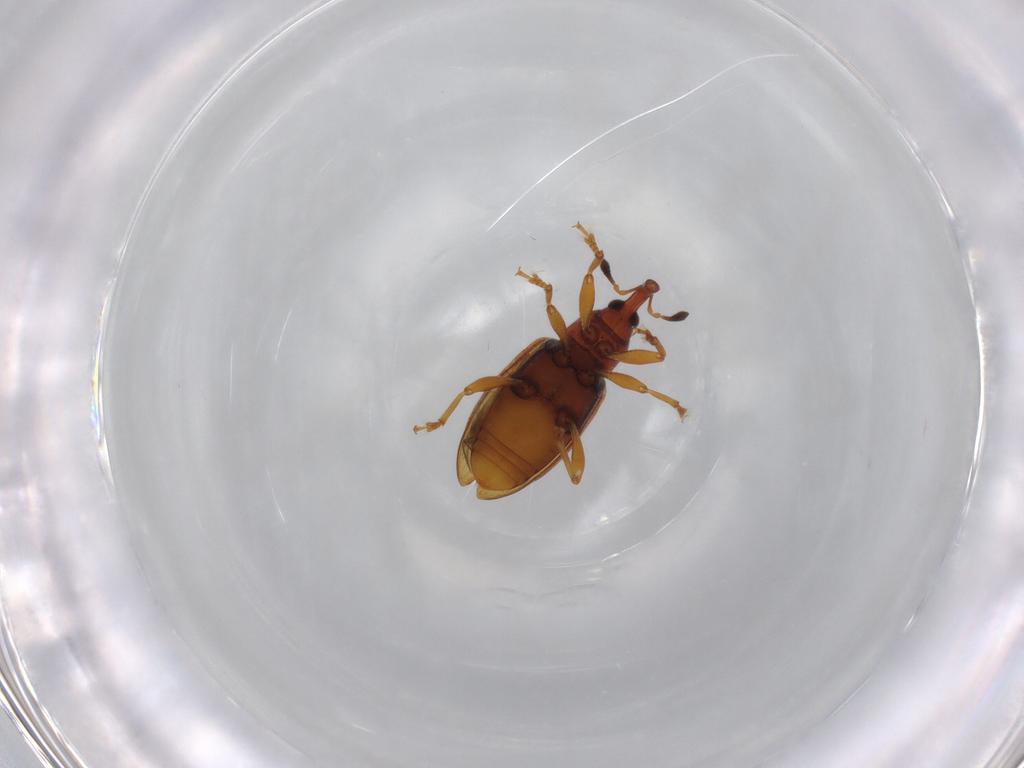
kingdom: Animalia
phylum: Arthropoda
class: Insecta
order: Coleoptera
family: Curculionidae
